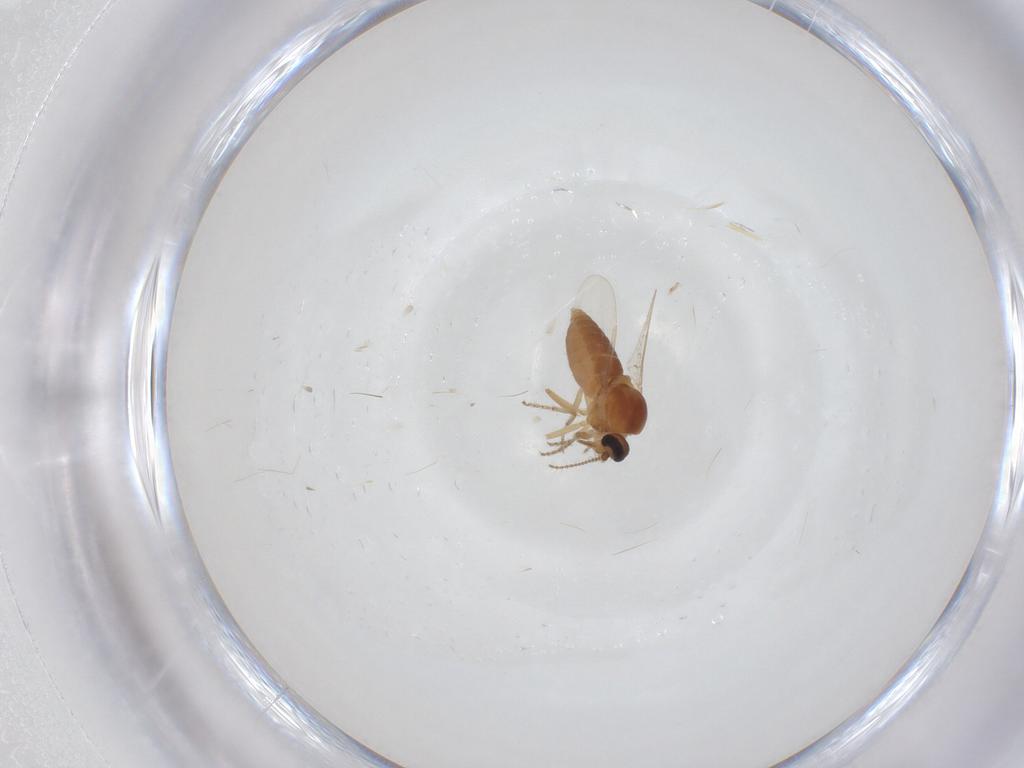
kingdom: Animalia
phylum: Arthropoda
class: Insecta
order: Diptera
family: Ceratopogonidae
